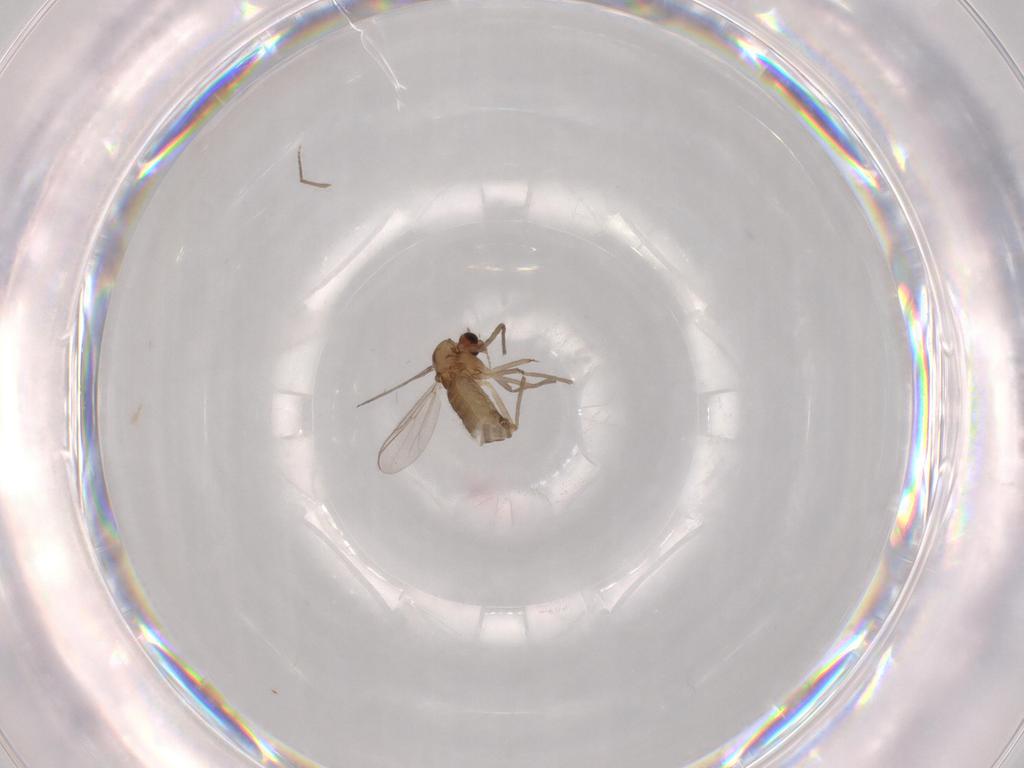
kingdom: Animalia
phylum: Arthropoda
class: Insecta
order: Diptera
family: Chironomidae
